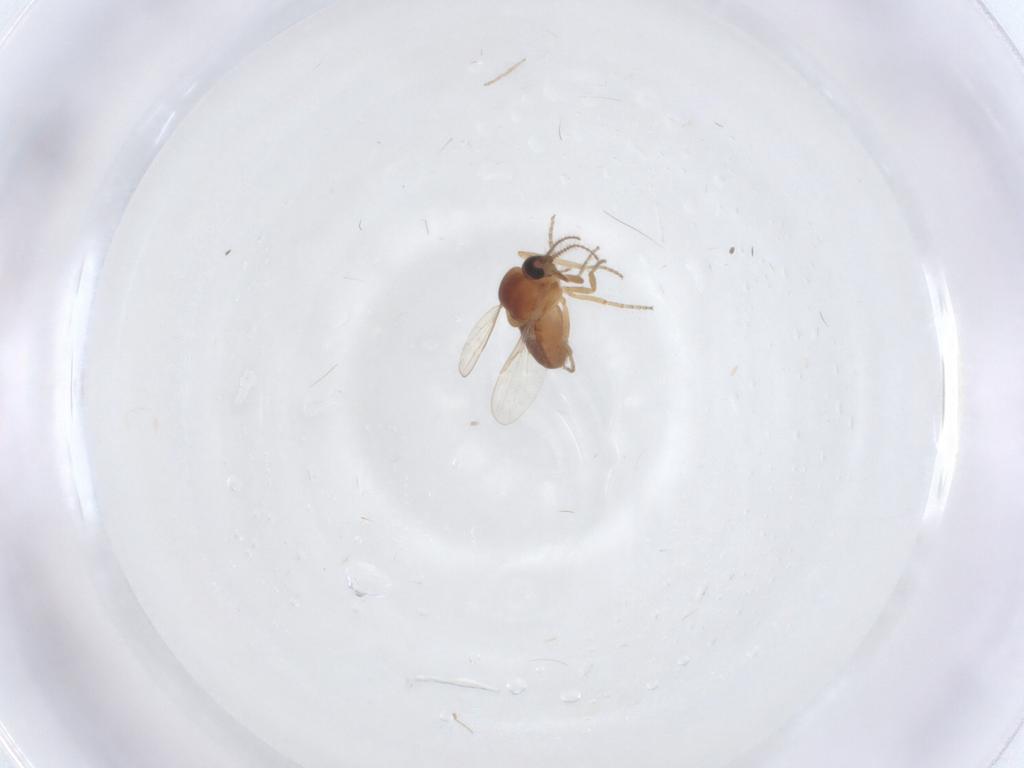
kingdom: Animalia
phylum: Arthropoda
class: Insecta
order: Diptera
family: Ceratopogonidae
